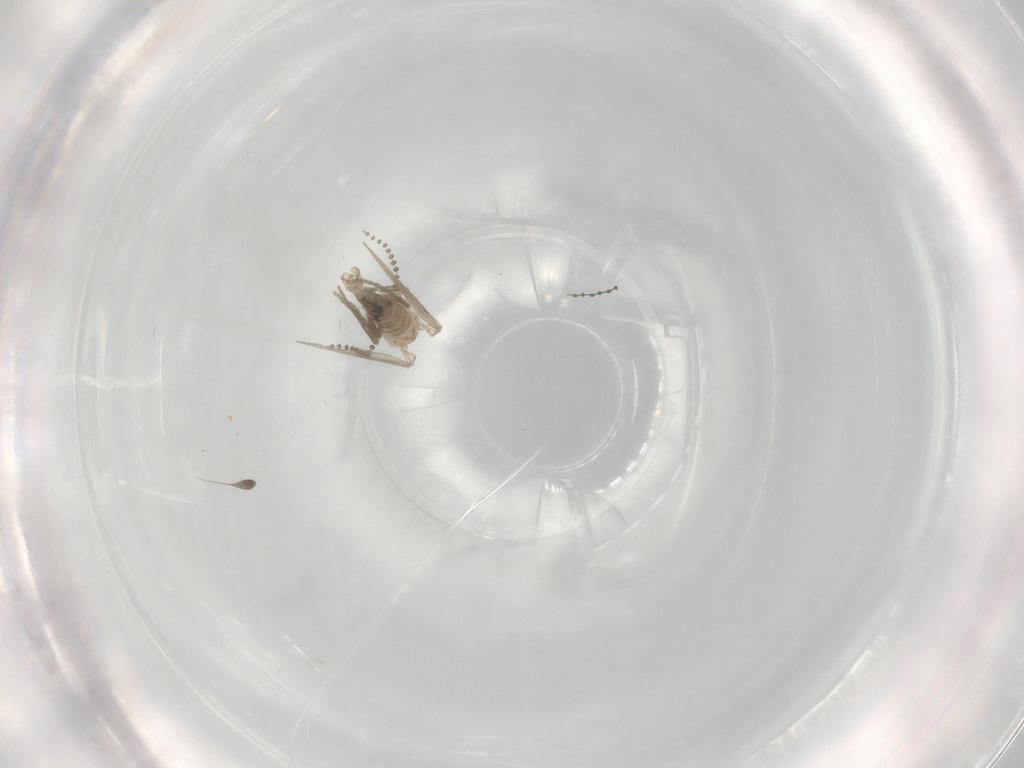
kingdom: Animalia
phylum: Arthropoda
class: Insecta
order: Diptera
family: Psychodidae
